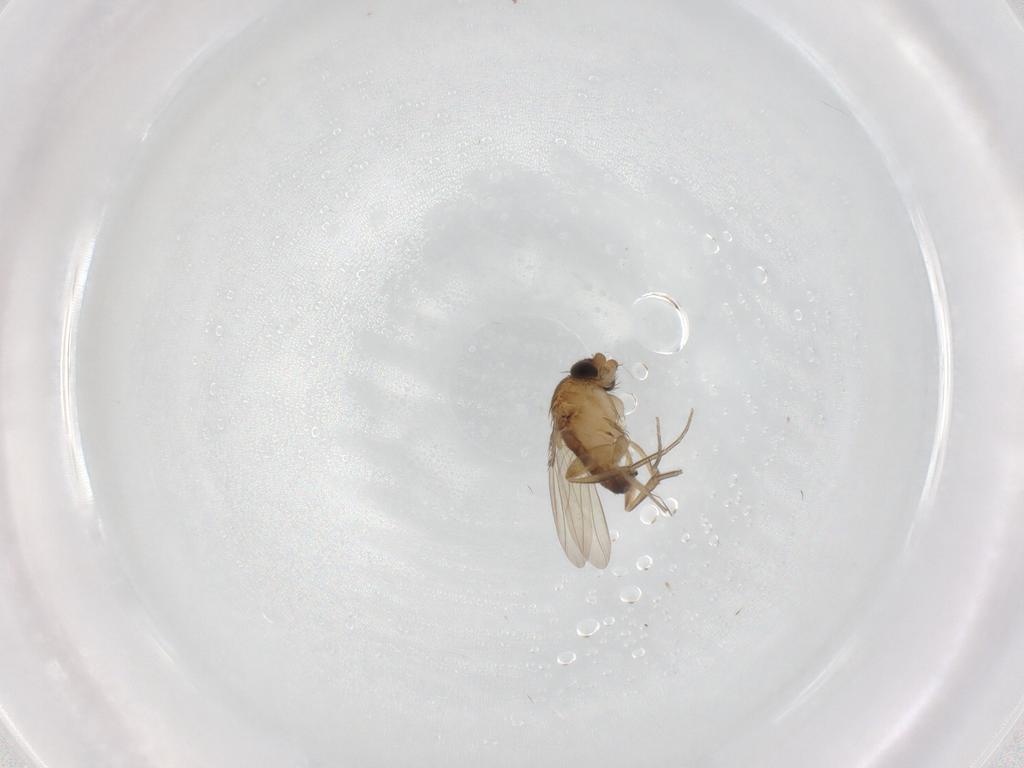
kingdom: Animalia
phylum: Arthropoda
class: Insecta
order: Diptera
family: Phoridae
